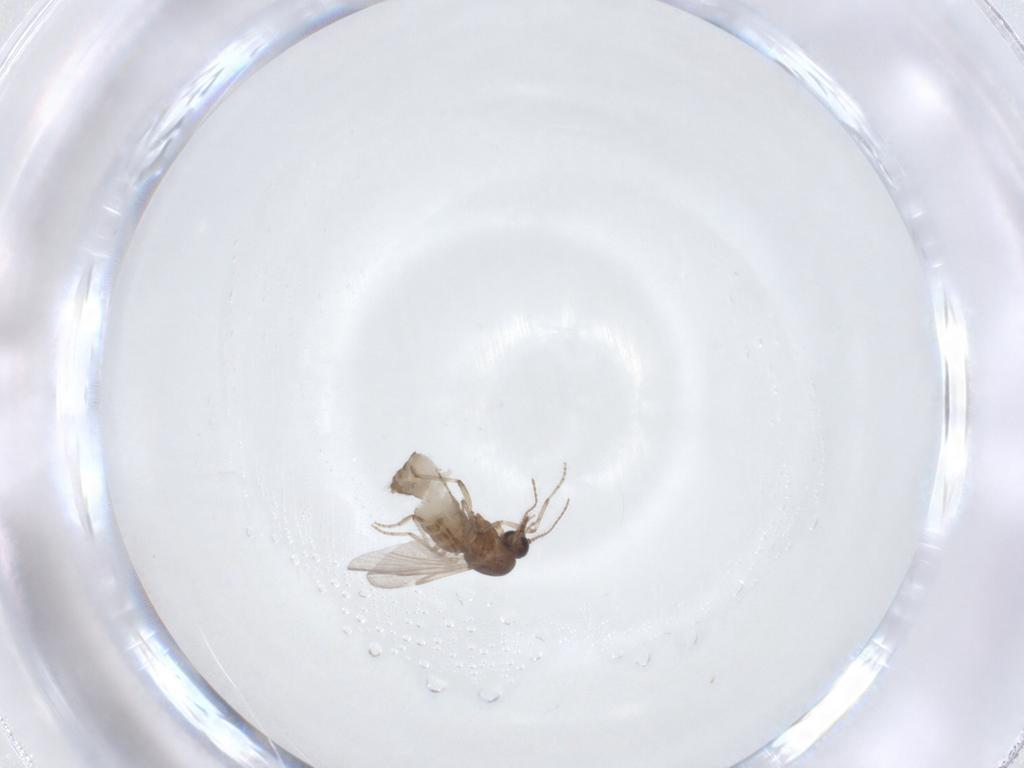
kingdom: Animalia
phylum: Arthropoda
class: Insecta
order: Diptera
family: Ceratopogonidae
